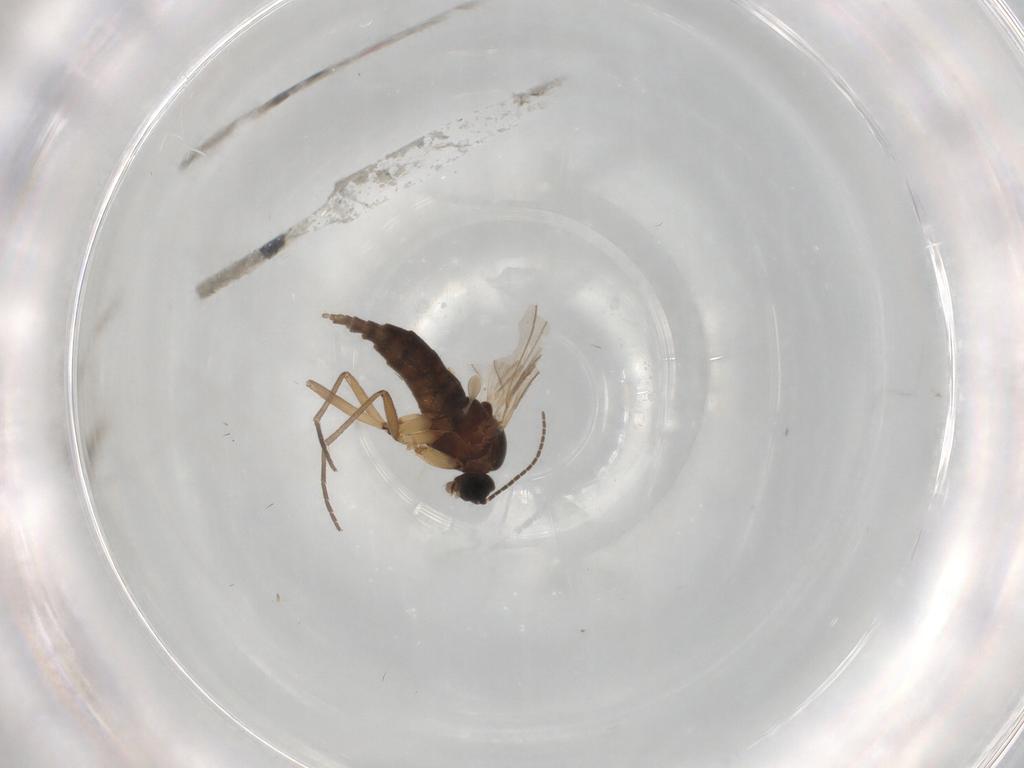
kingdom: Animalia
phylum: Arthropoda
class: Insecta
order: Diptera
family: Sciaridae
